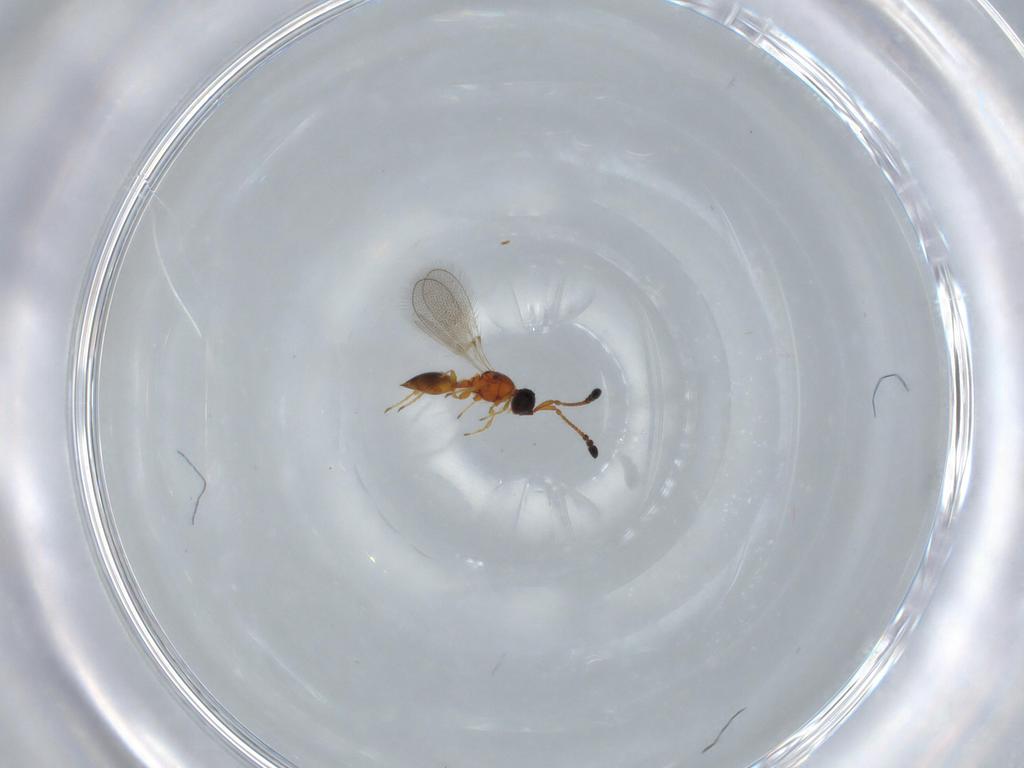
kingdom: Animalia
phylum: Arthropoda
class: Insecta
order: Hymenoptera
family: Diapriidae
